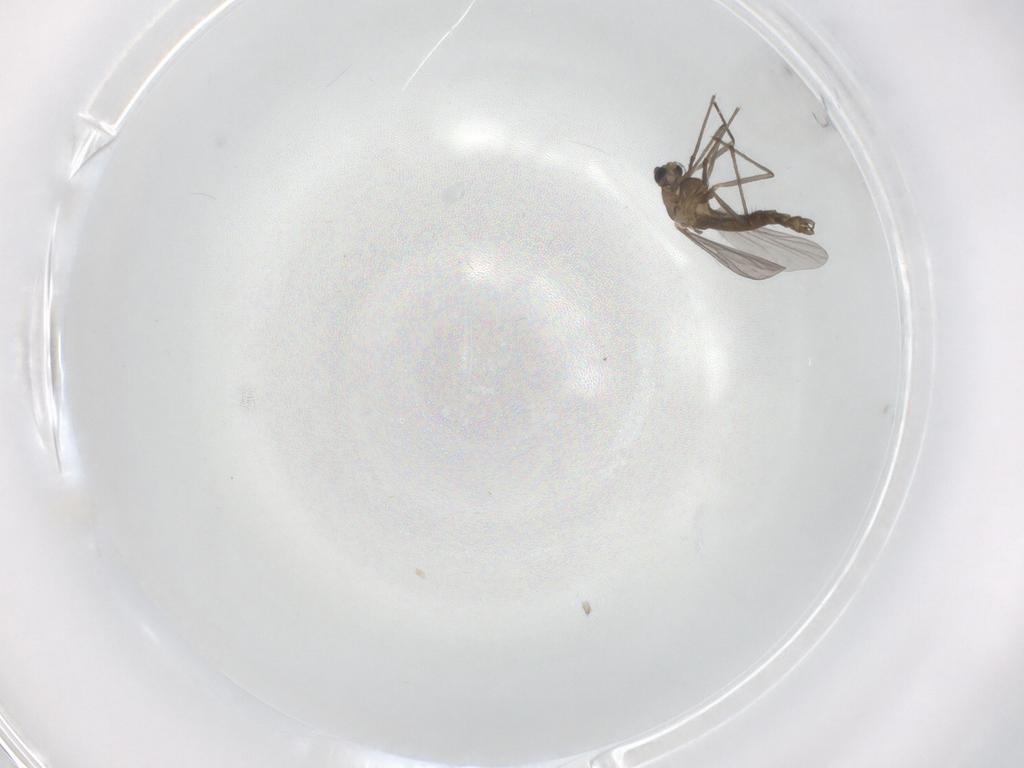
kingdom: Animalia
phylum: Arthropoda
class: Insecta
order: Diptera
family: Chironomidae
